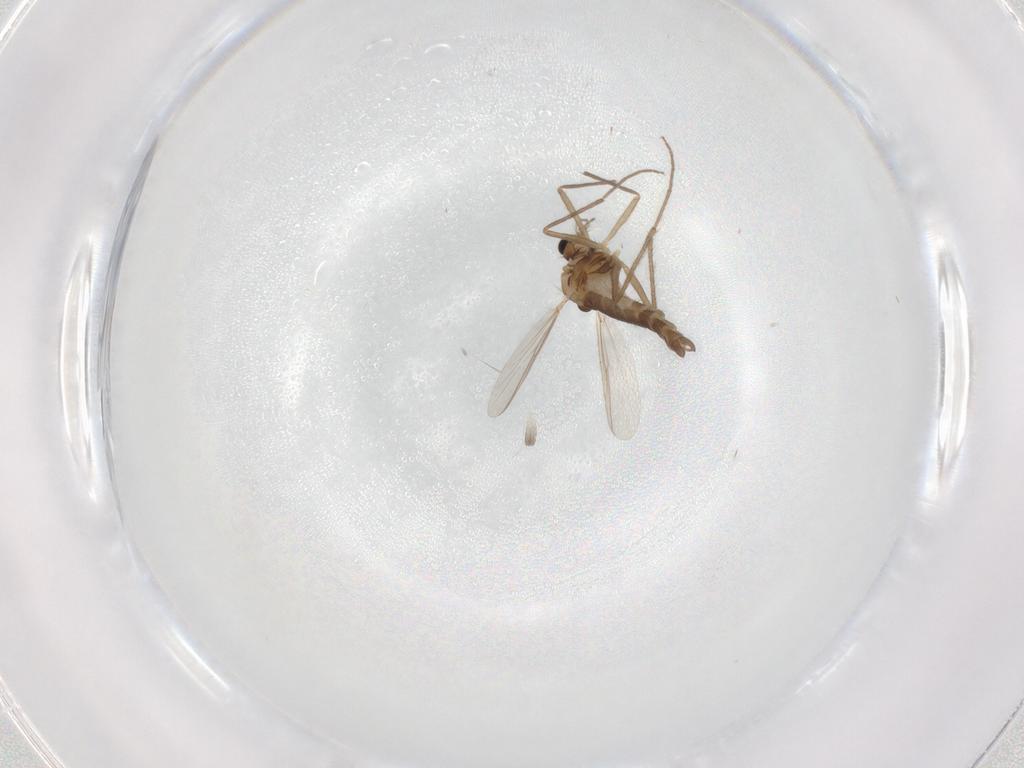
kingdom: Animalia
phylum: Arthropoda
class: Insecta
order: Diptera
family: Chironomidae
